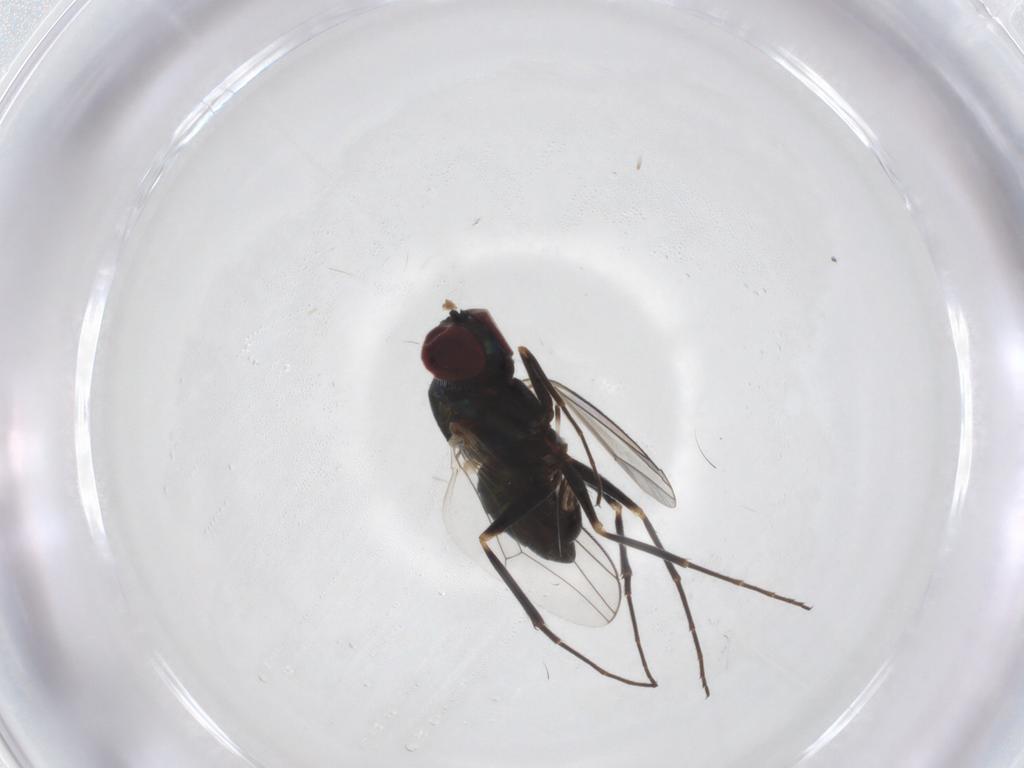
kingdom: Animalia
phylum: Arthropoda
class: Insecta
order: Diptera
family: Dolichopodidae
